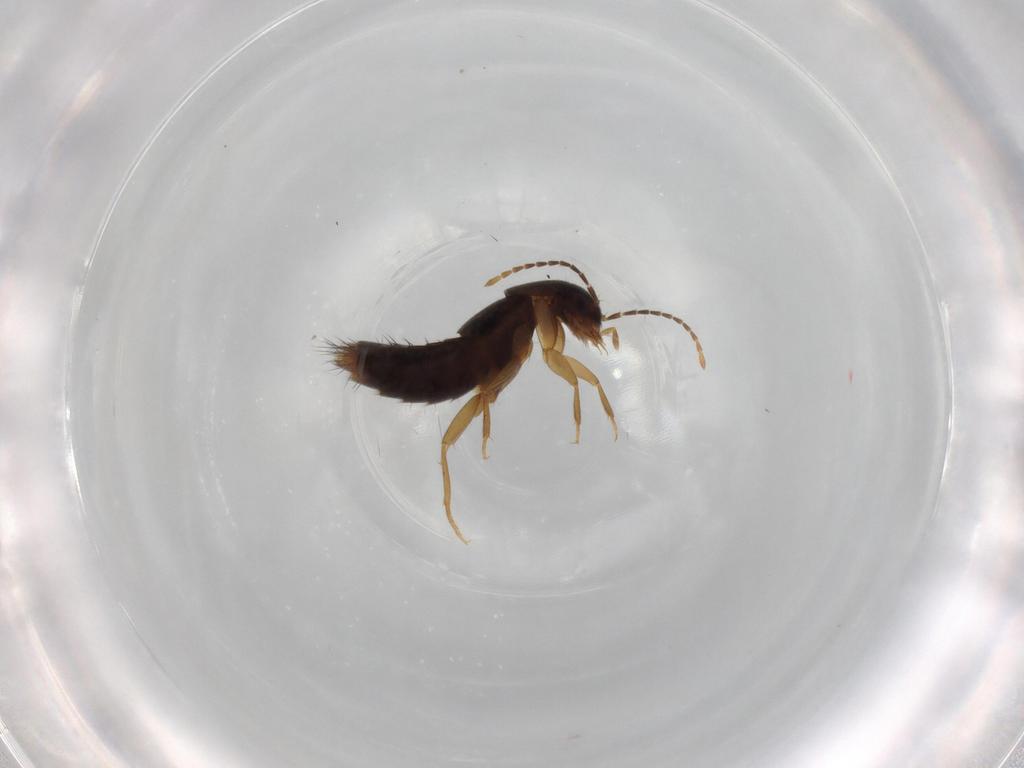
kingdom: Animalia
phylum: Arthropoda
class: Insecta
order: Coleoptera
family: Staphylinidae
